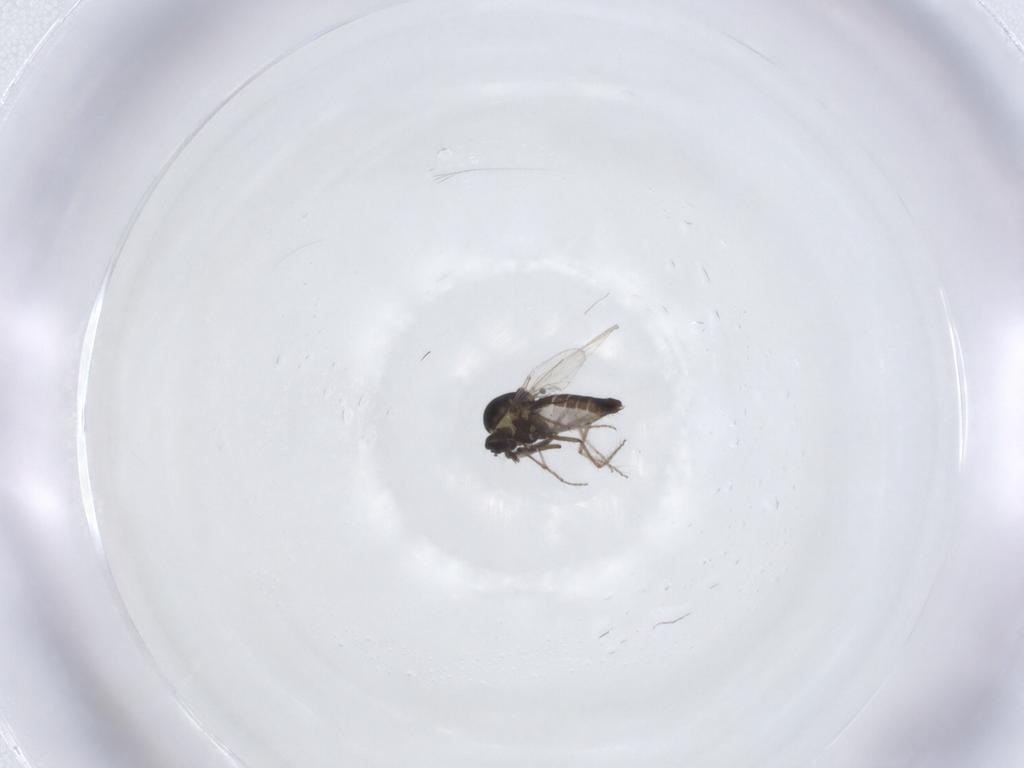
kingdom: Animalia
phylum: Arthropoda
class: Insecta
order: Diptera
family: Ceratopogonidae
